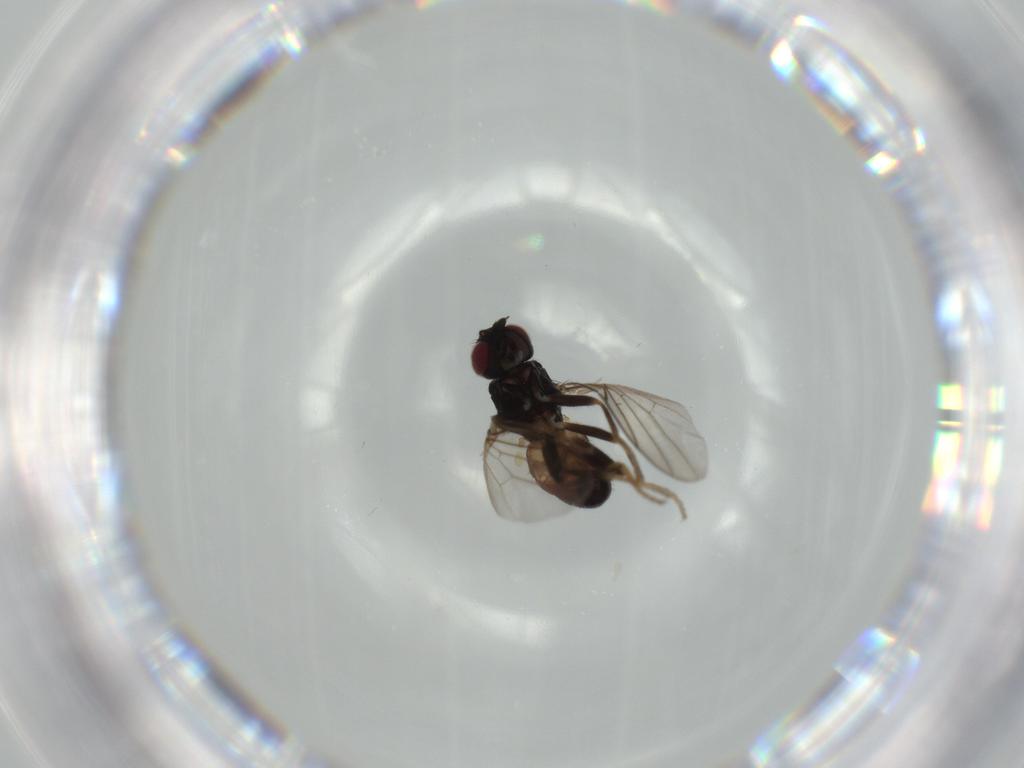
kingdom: Animalia
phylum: Arthropoda
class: Insecta
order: Diptera
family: Chloropidae
